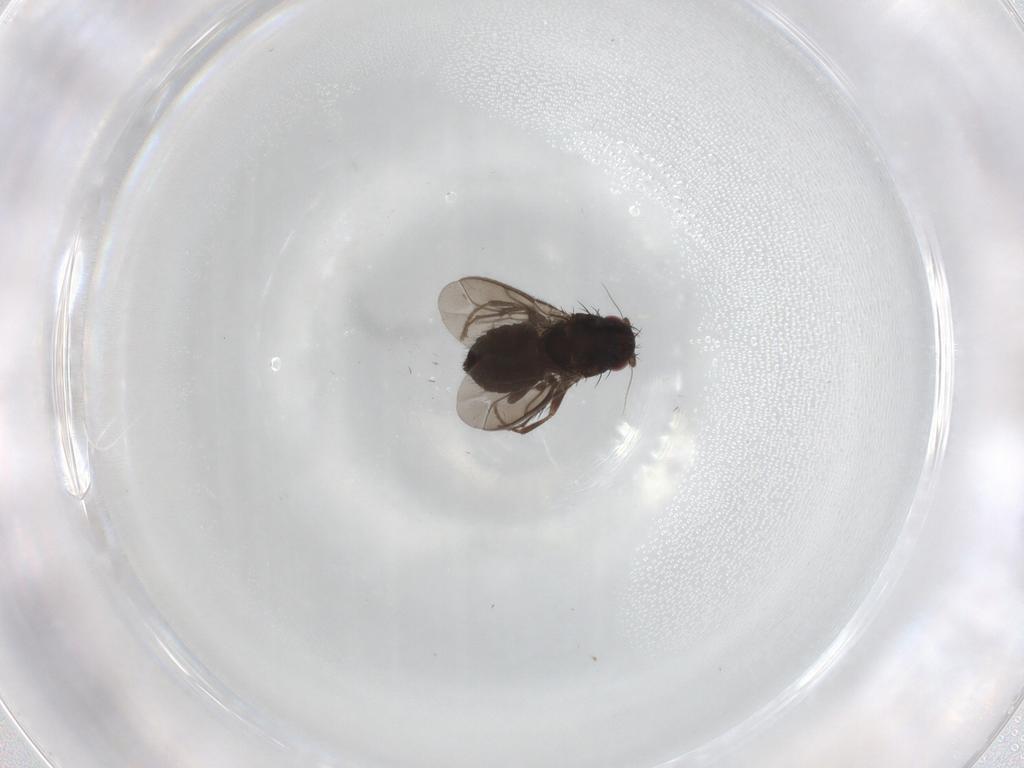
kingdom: Animalia
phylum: Arthropoda
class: Insecta
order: Diptera
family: Sphaeroceridae
